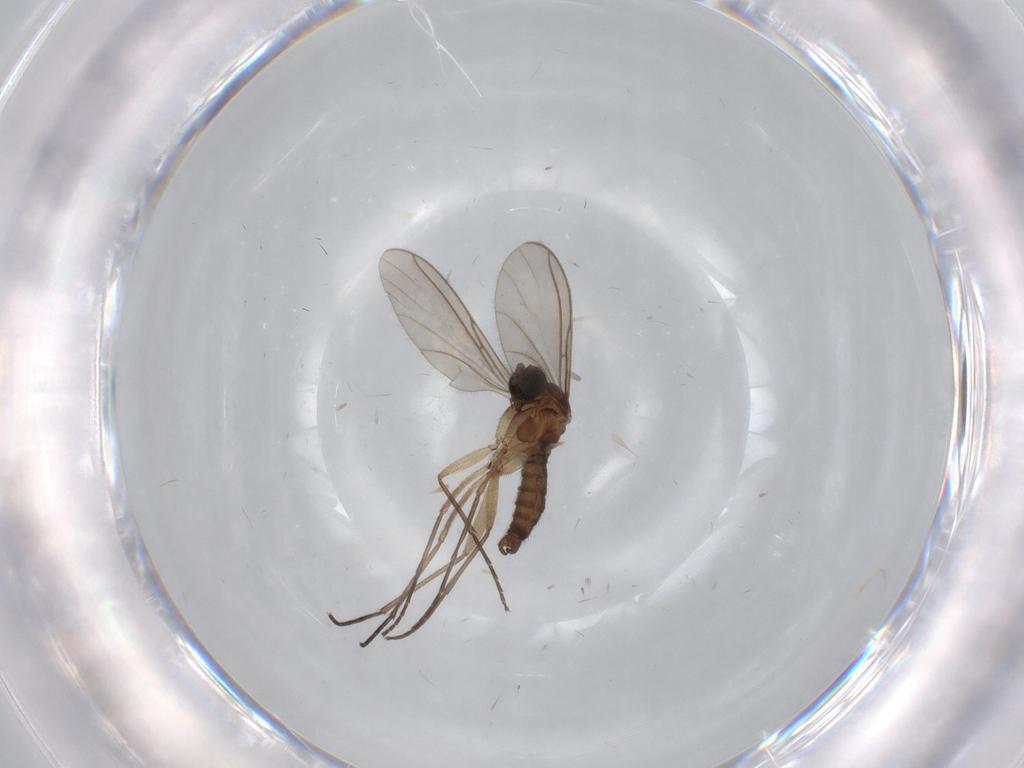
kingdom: Animalia
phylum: Arthropoda
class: Insecta
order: Diptera
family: Sciaridae
